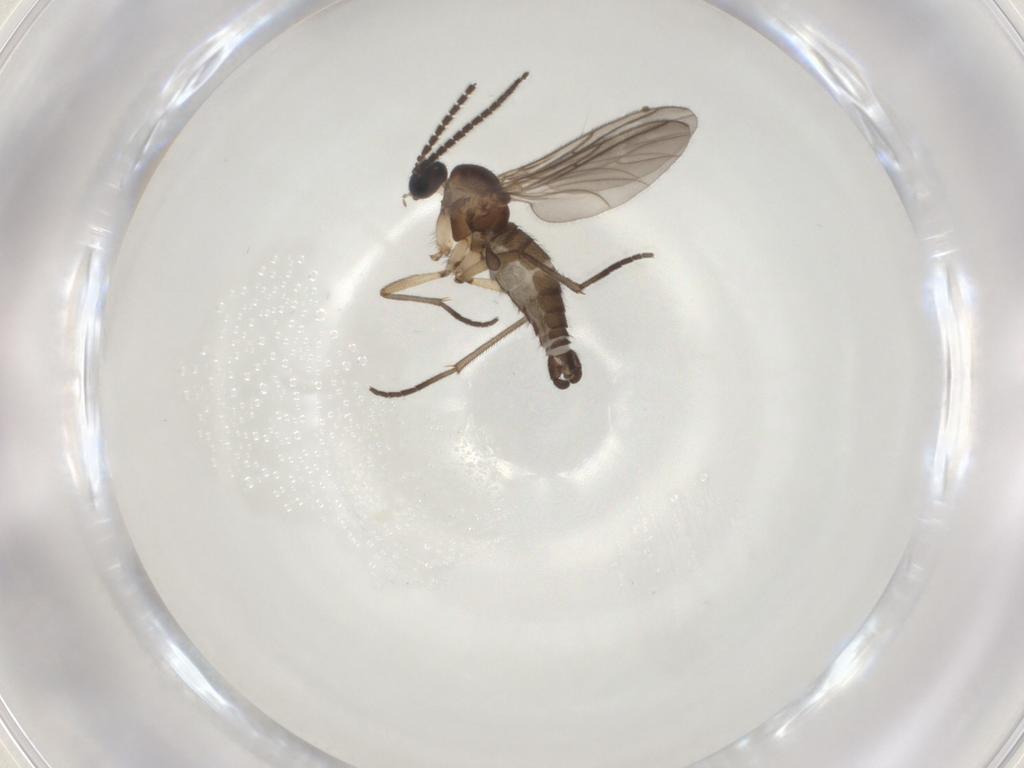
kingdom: Animalia
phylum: Arthropoda
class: Insecta
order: Diptera
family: Sciaridae
